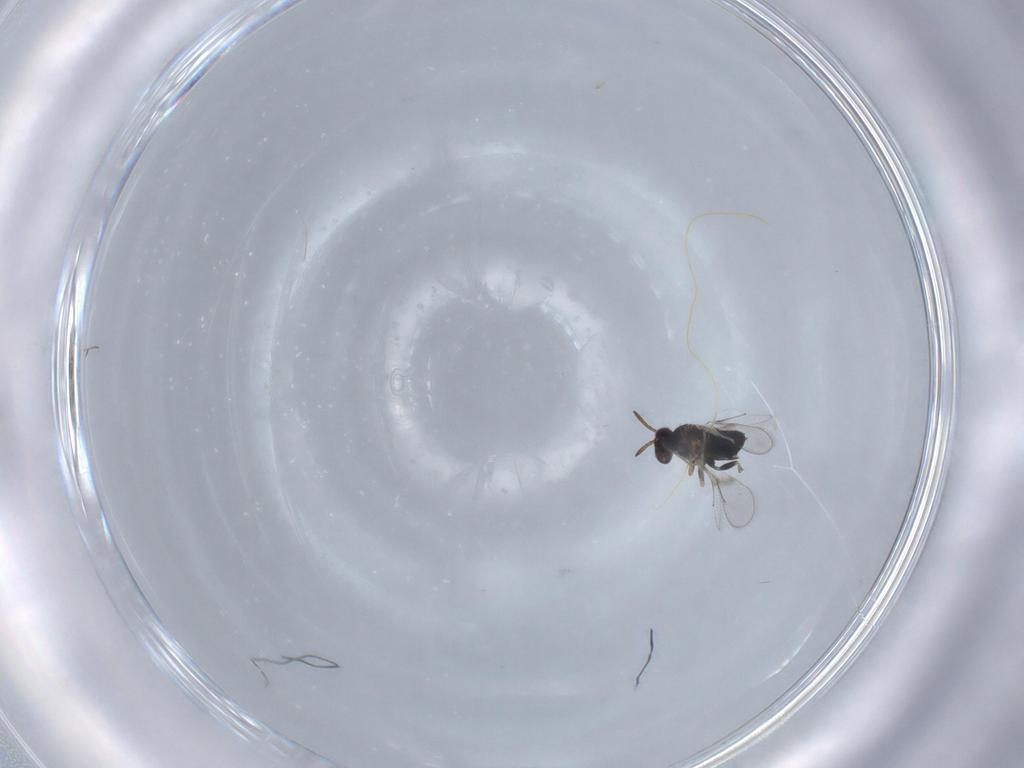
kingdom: Animalia
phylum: Arthropoda
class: Insecta
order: Hymenoptera
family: Aphelinidae
